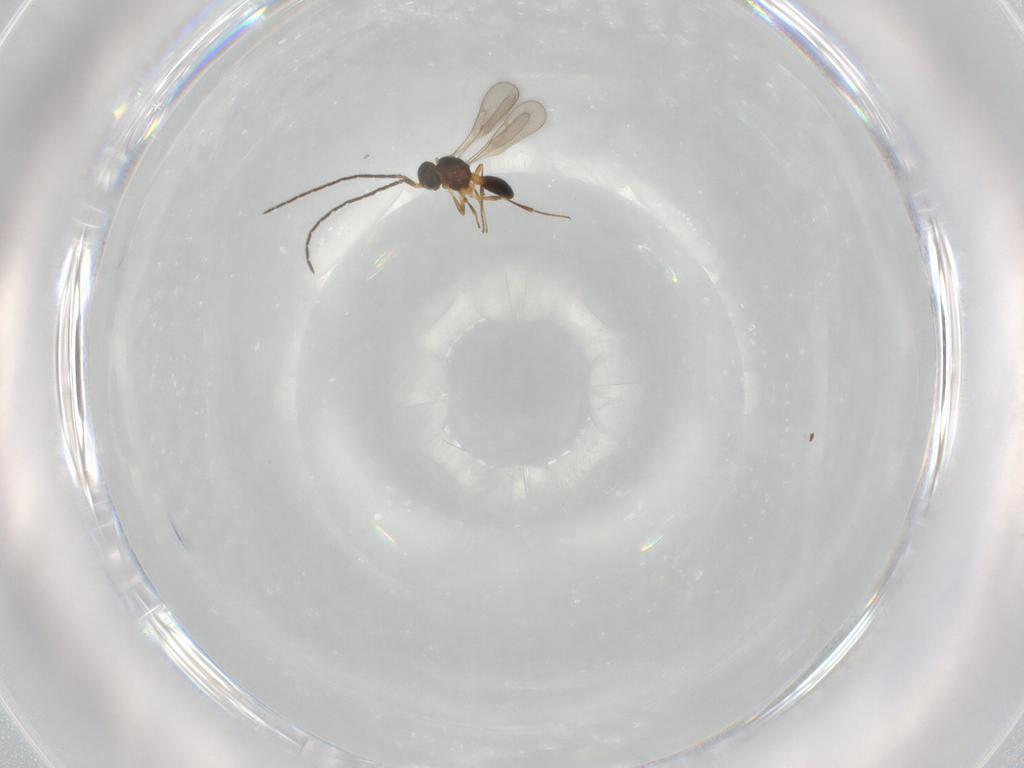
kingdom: Animalia
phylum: Arthropoda
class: Insecta
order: Hymenoptera
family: Scelionidae
